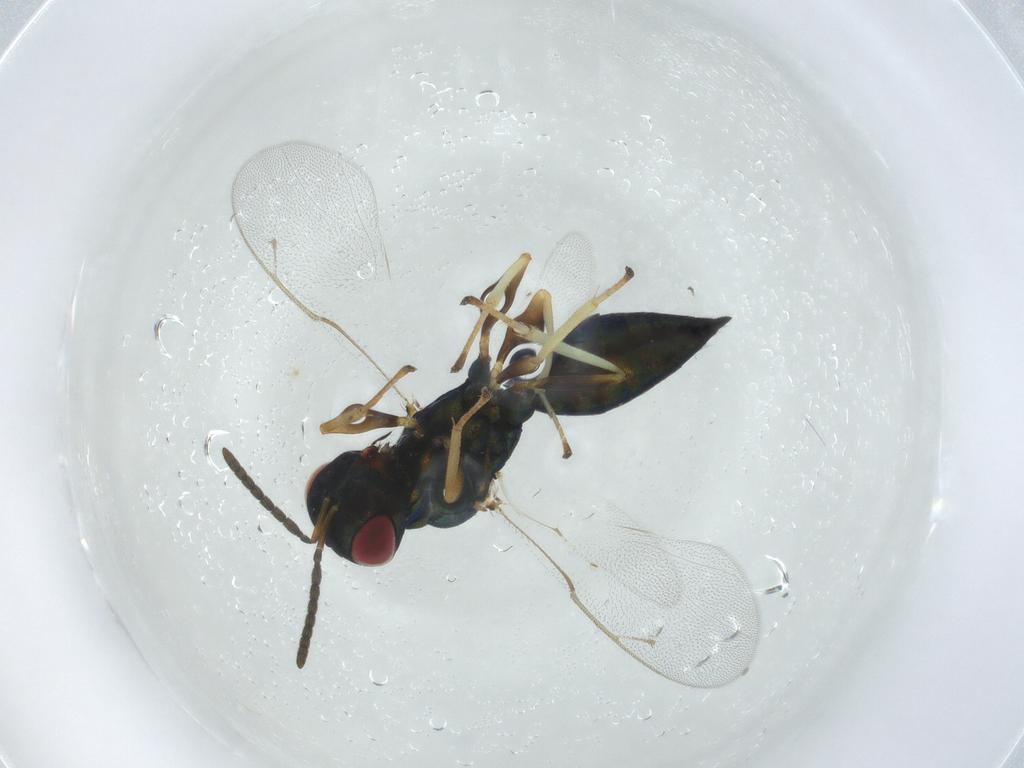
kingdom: Animalia
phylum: Arthropoda
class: Insecta
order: Hymenoptera
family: Pteromalidae
